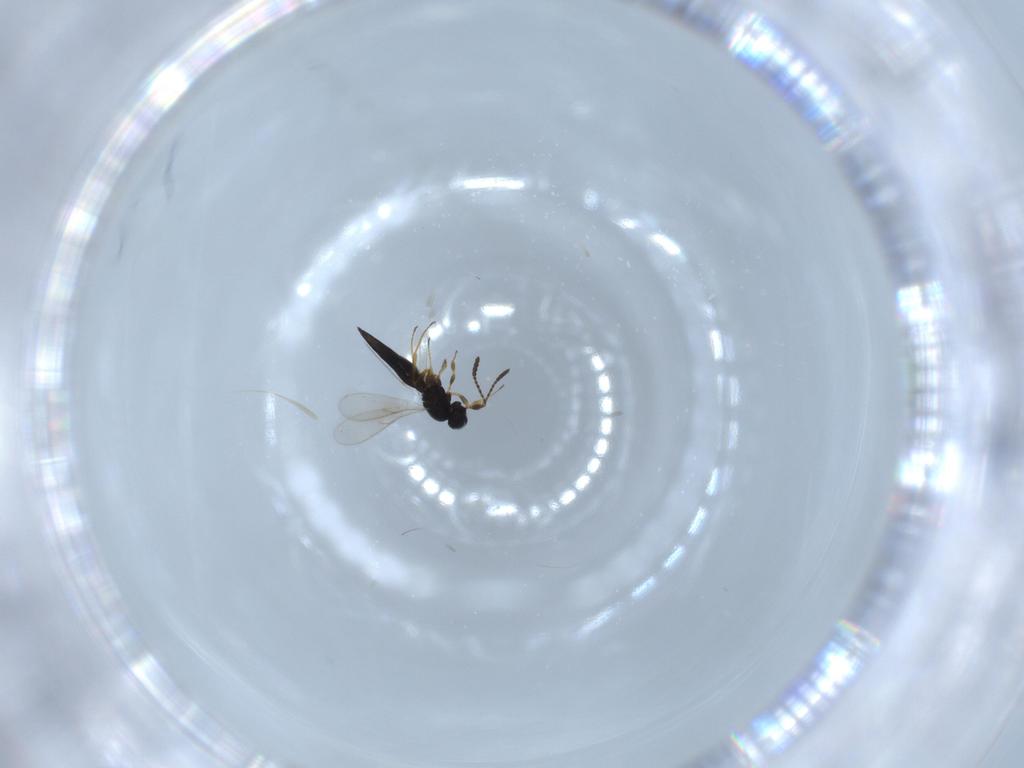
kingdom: Animalia
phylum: Arthropoda
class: Insecta
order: Hymenoptera
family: Scelionidae
